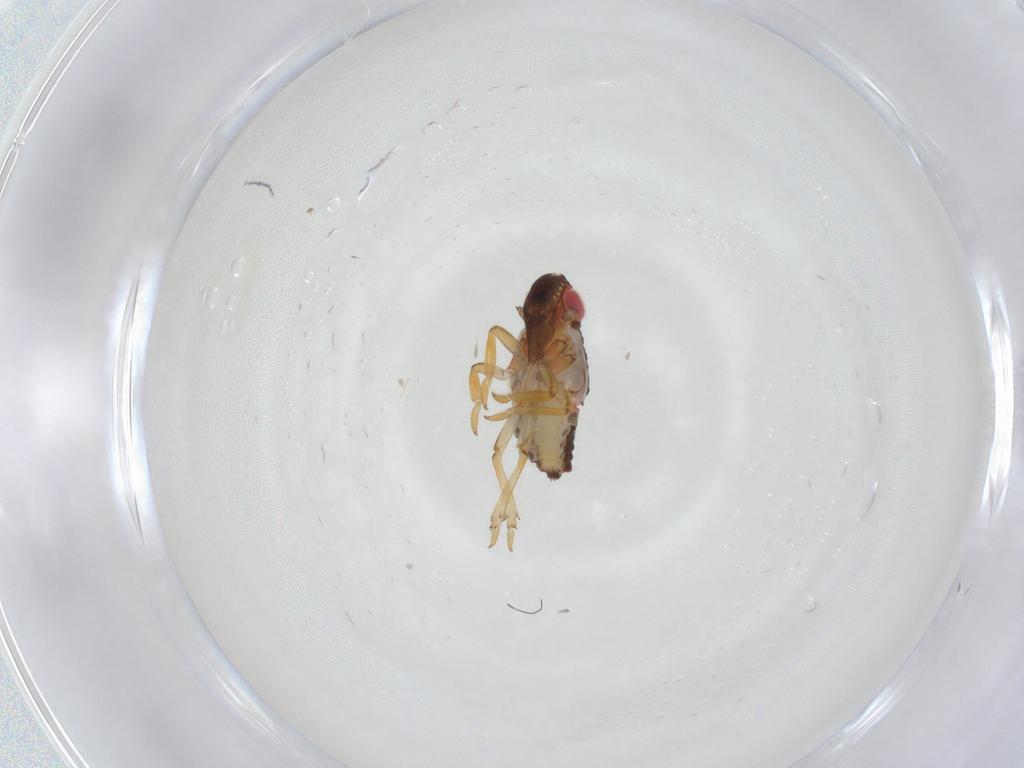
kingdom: Animalia
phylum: Arthropoda
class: Insecta
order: Hemiptera
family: Fulgoroidea_incertae_sedis
